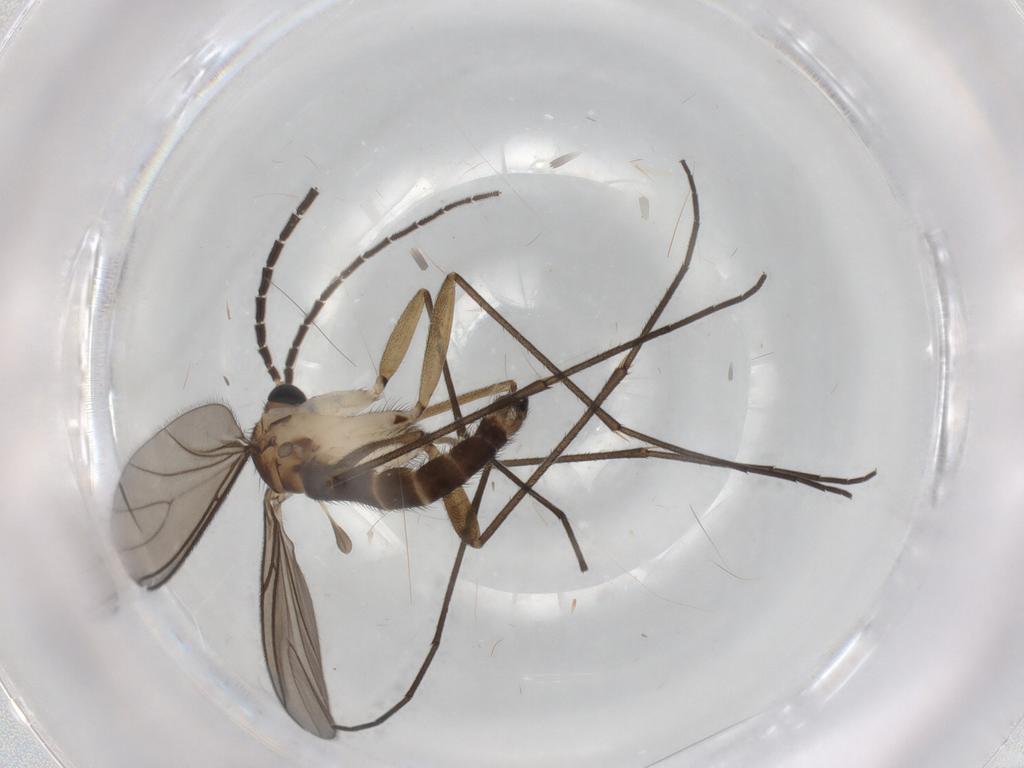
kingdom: Animalia
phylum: Arthropoda
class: Insecta
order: Diptera
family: Sciaridae
